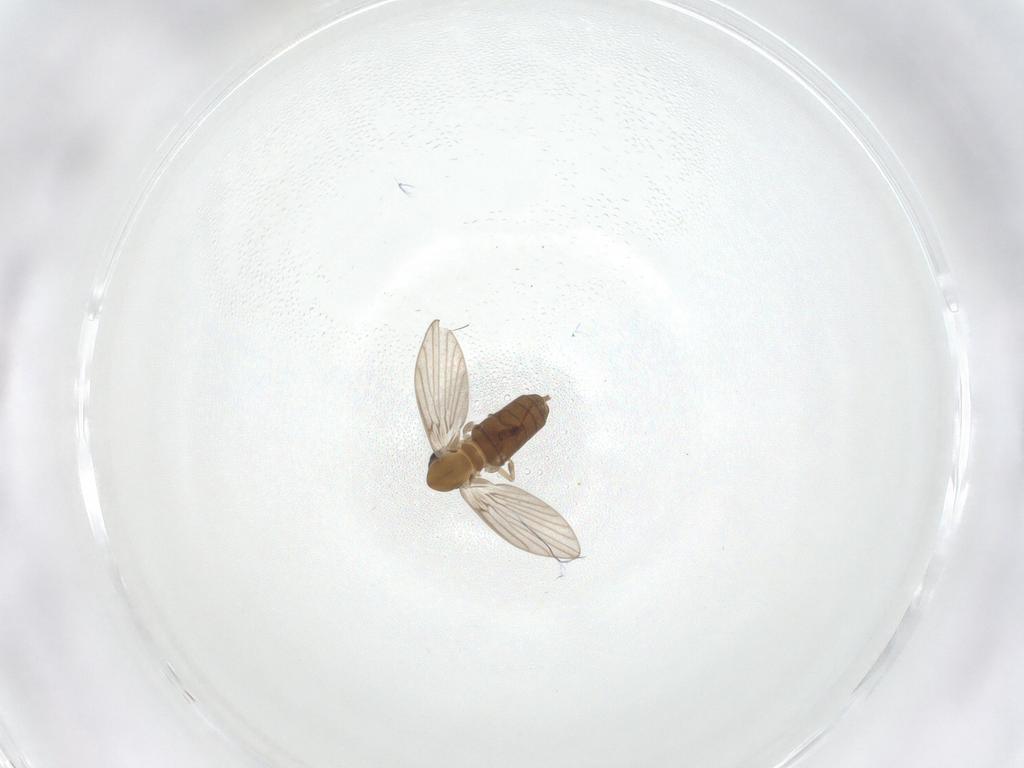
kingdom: Animalia
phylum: Arthropoda
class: Insecta
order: Diptera
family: Psychodidae
